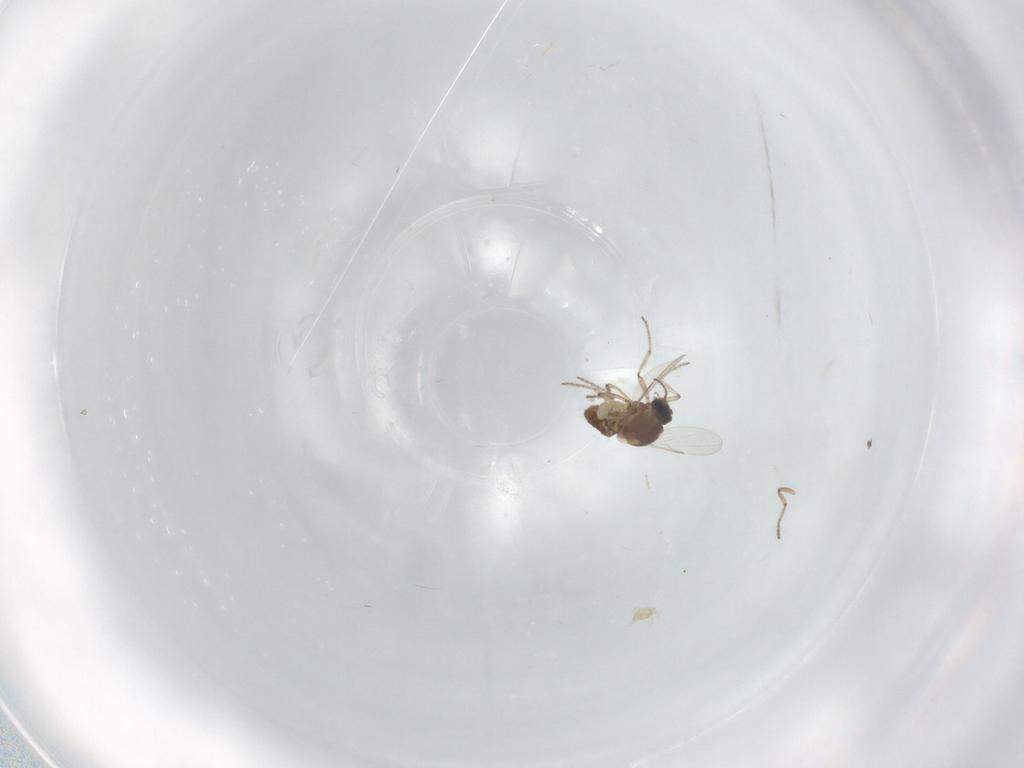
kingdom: Animalia
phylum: Arthropoda
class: Insecta
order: Diptera
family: Ceratopogonidae
